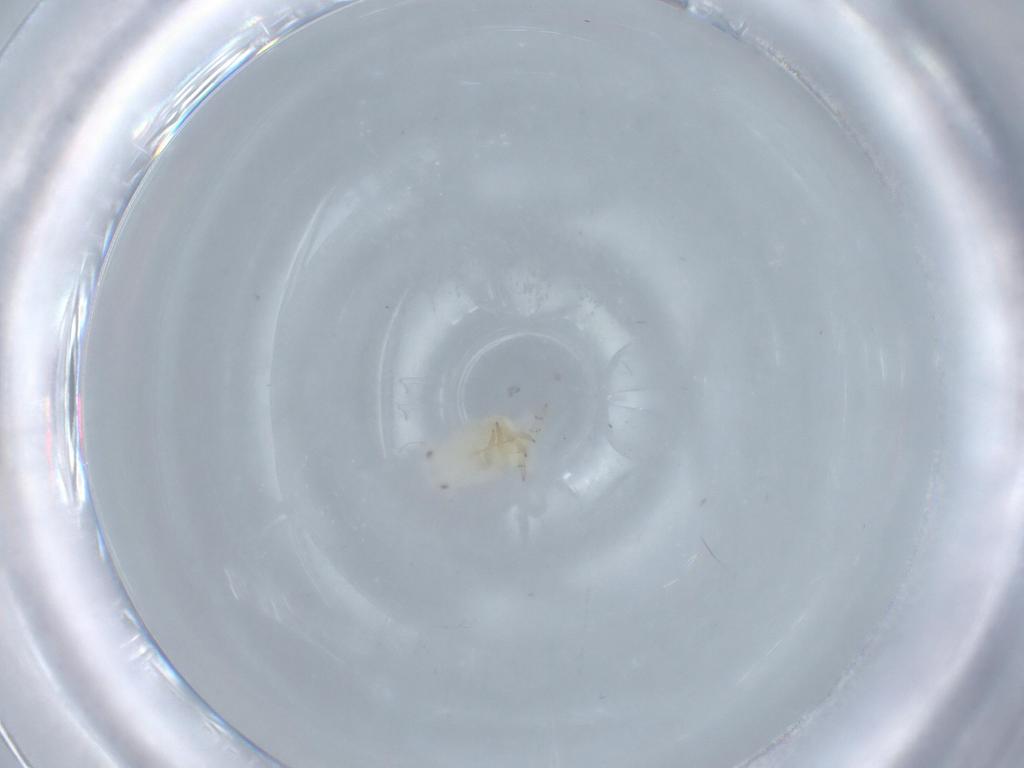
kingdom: Animalia
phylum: Arthropoda
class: Insecta
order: Hemiptera
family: Flatidae
